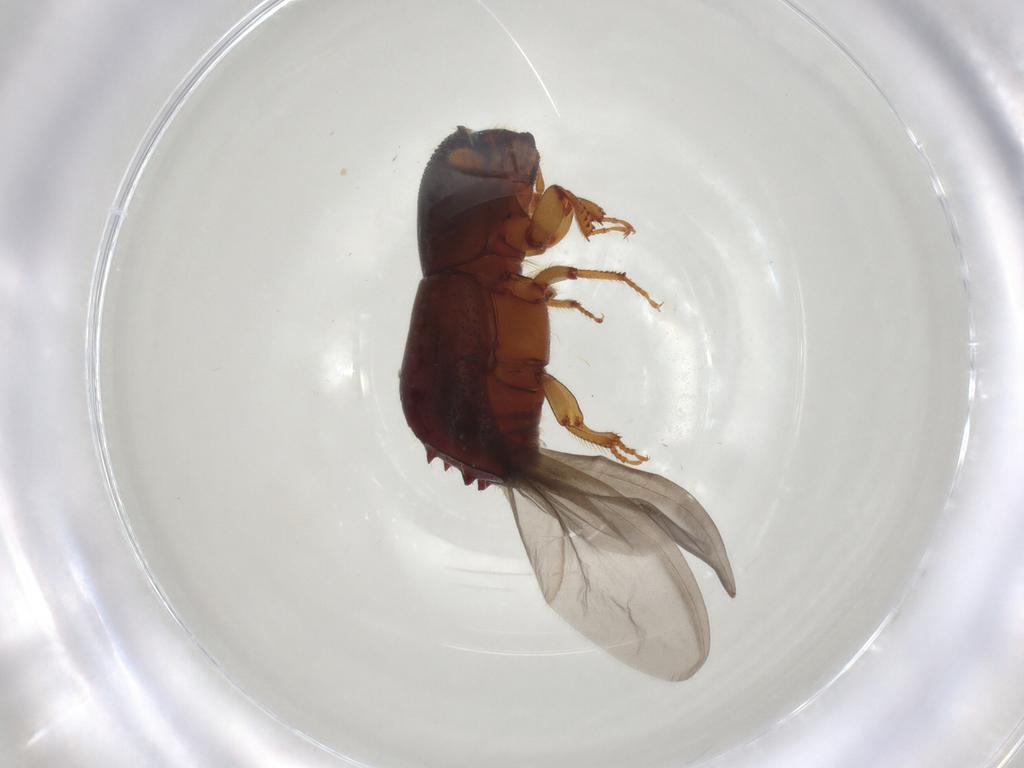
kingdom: Animalia
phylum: Arthropoda
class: Insecta
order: Coleoptera
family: Curculionidae
